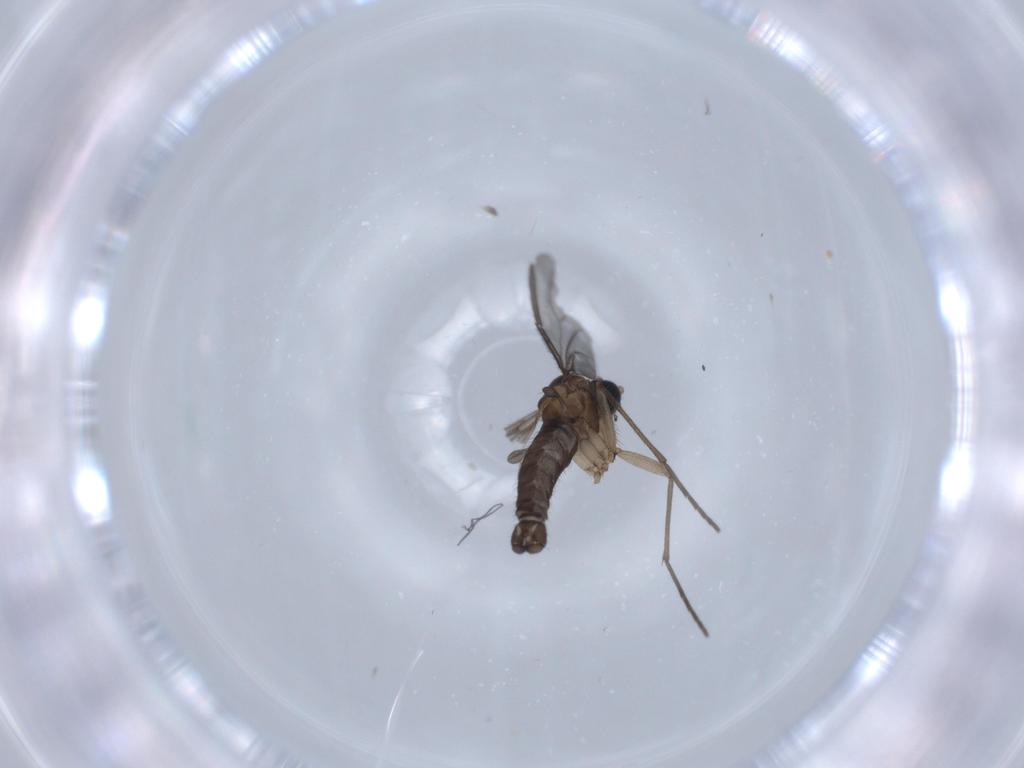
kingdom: Animalia
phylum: Arthropoda
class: Insecta
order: Diptera
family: Sciaridae
